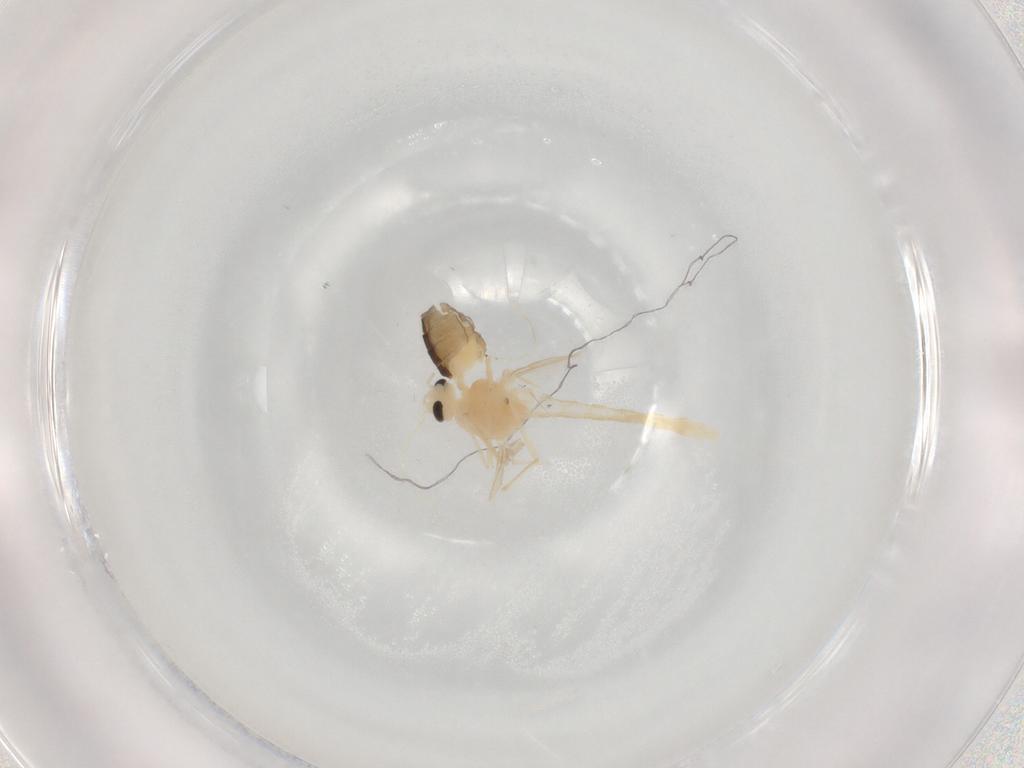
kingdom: Animalia
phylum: Arthropoda
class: Insecta
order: Diptera
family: Phoridae
